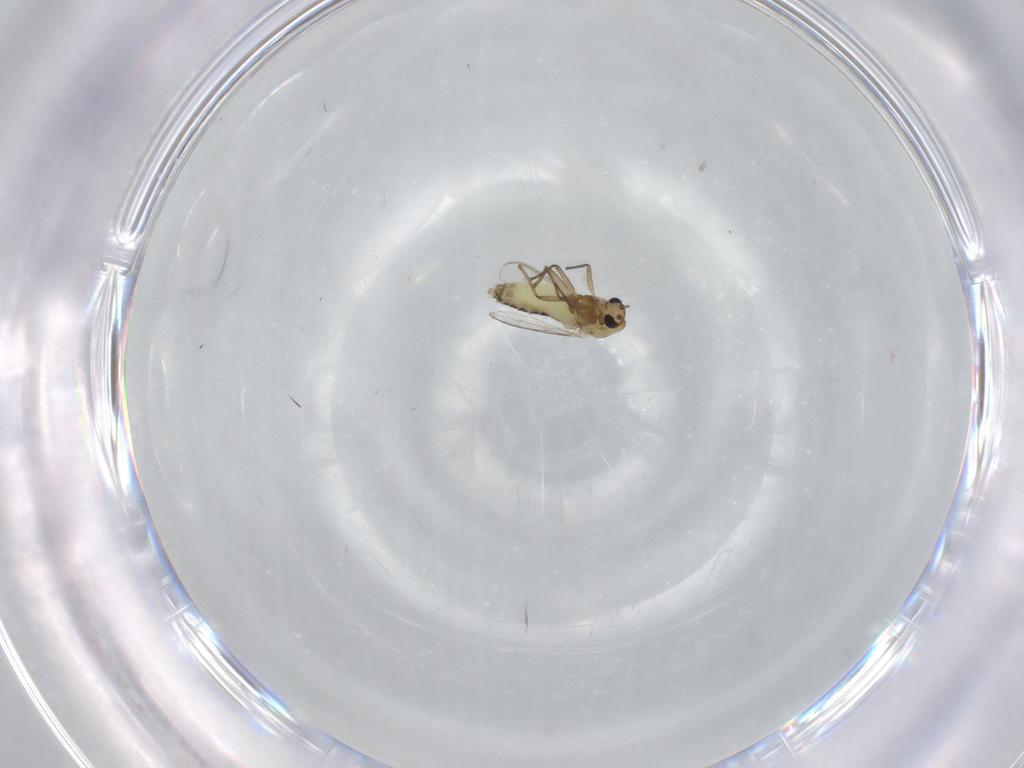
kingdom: Animalia
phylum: Arthropoda
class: Insecta
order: Diptera
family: Chironomidae
